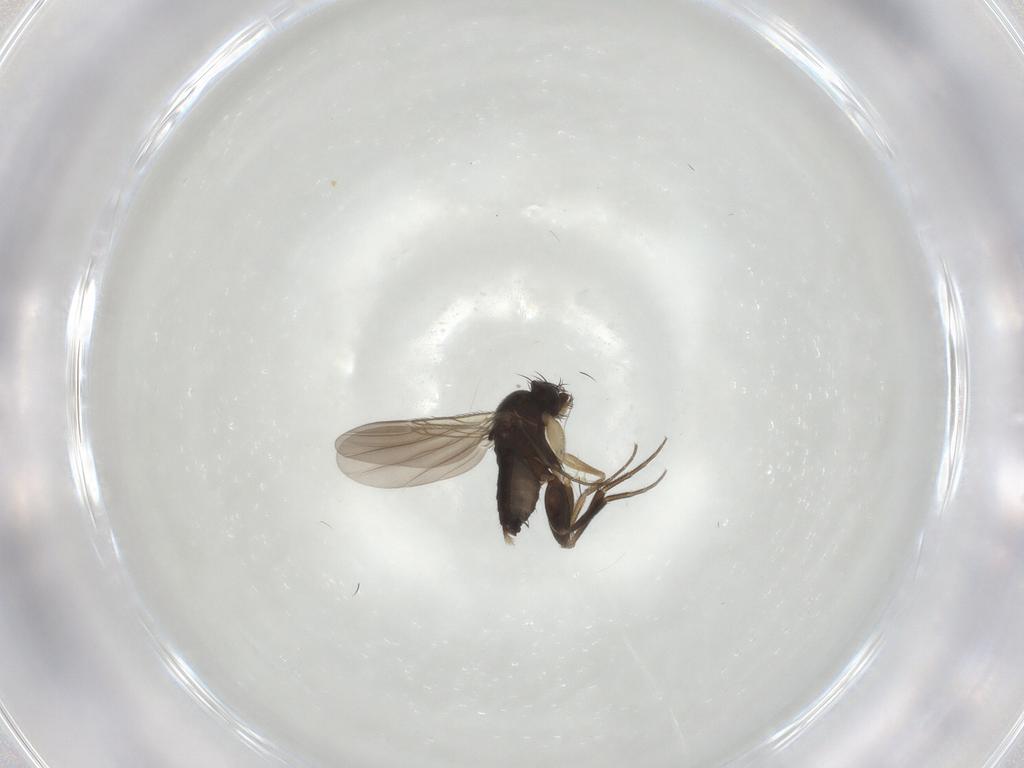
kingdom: Animalia
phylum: Arthropoda
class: Insecta
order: Diptera
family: Phoridae
